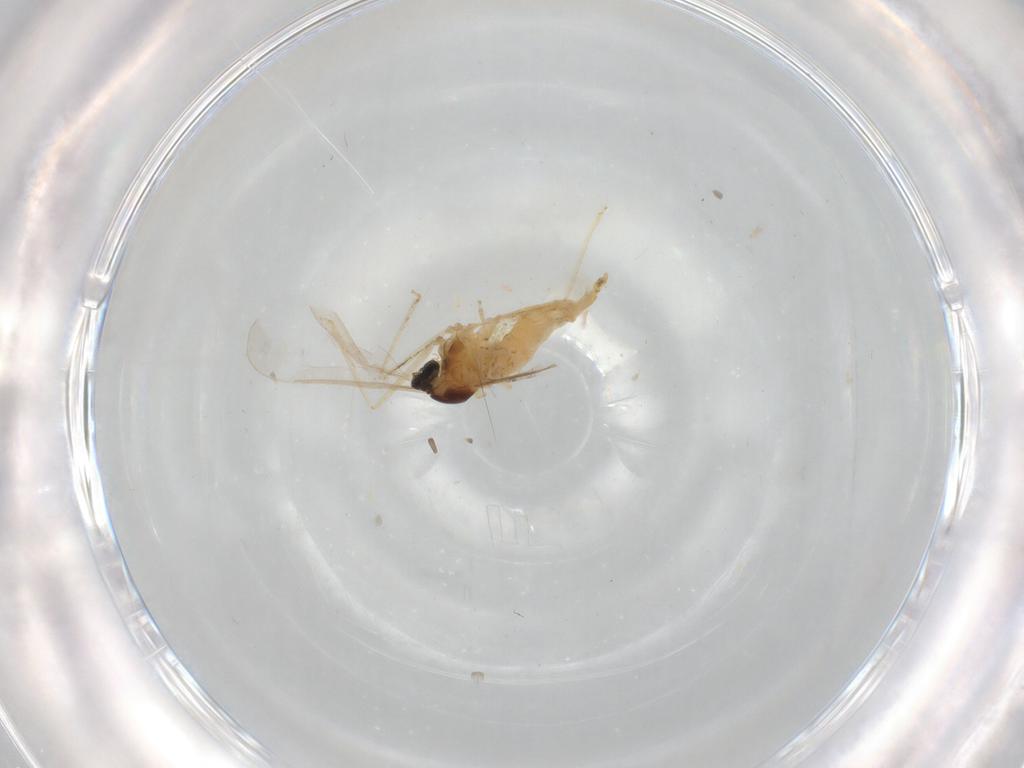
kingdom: Animalia
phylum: Arthropoda
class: Insecta
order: Diptera
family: Cecidomyiidae
